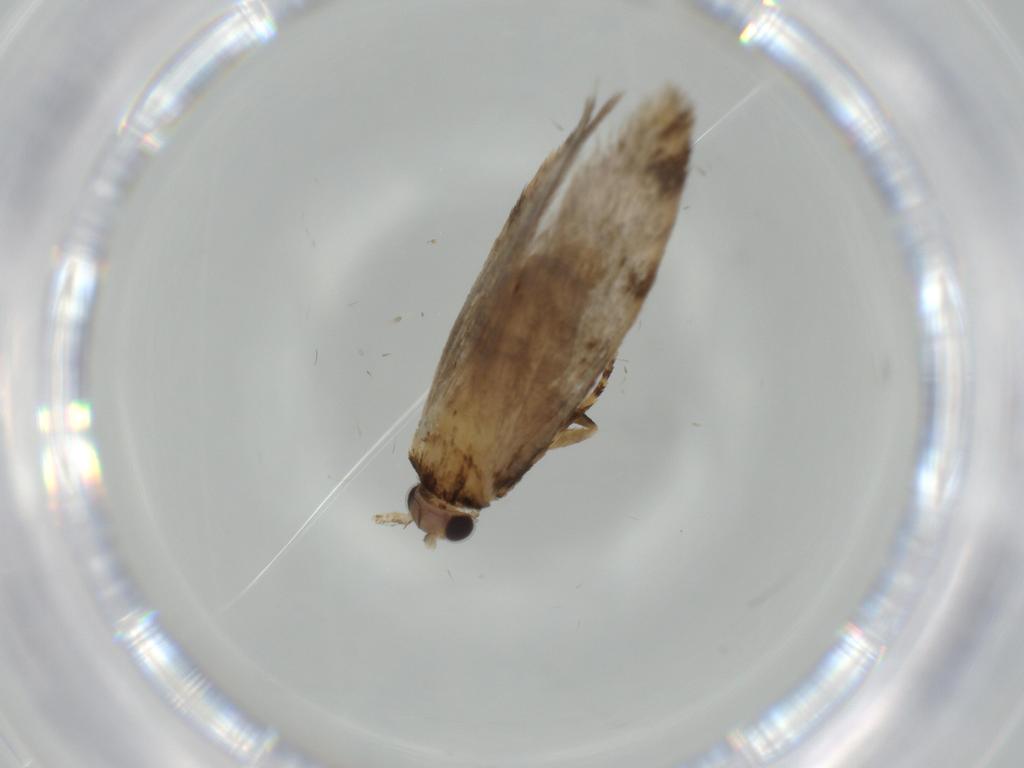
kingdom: Animalia
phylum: Arthropoda
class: Insecta
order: Lepidoptera
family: Tineidae
